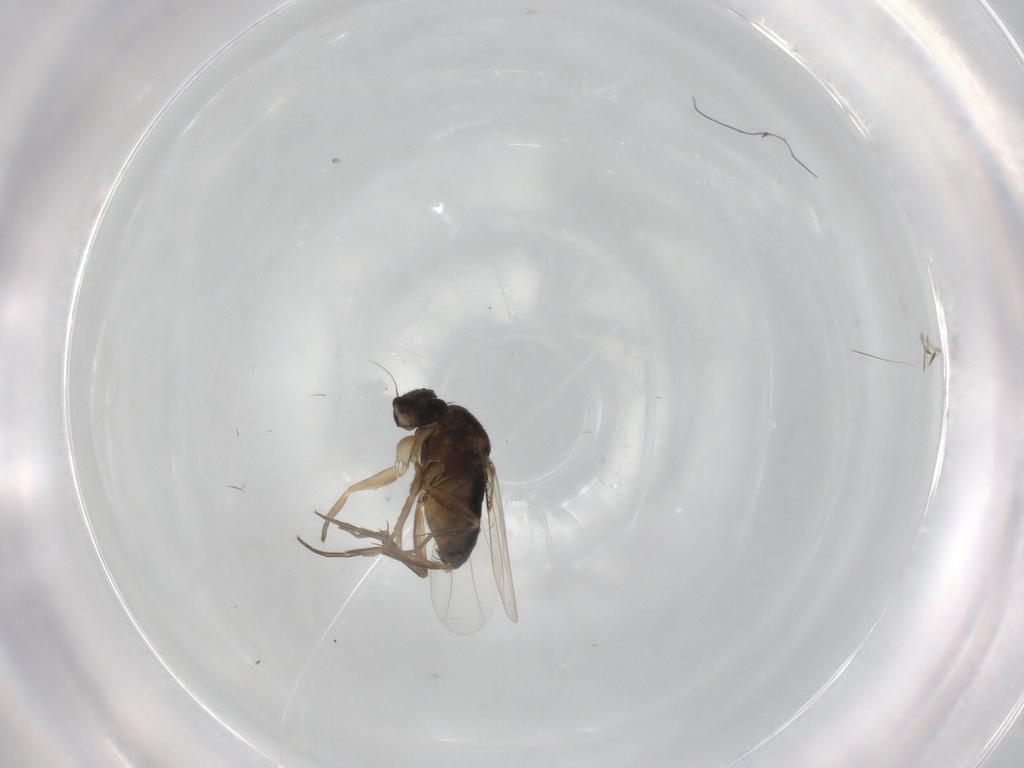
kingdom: Animalia
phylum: Arthropoda
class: Insecta
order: Diptera
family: Phoridae
